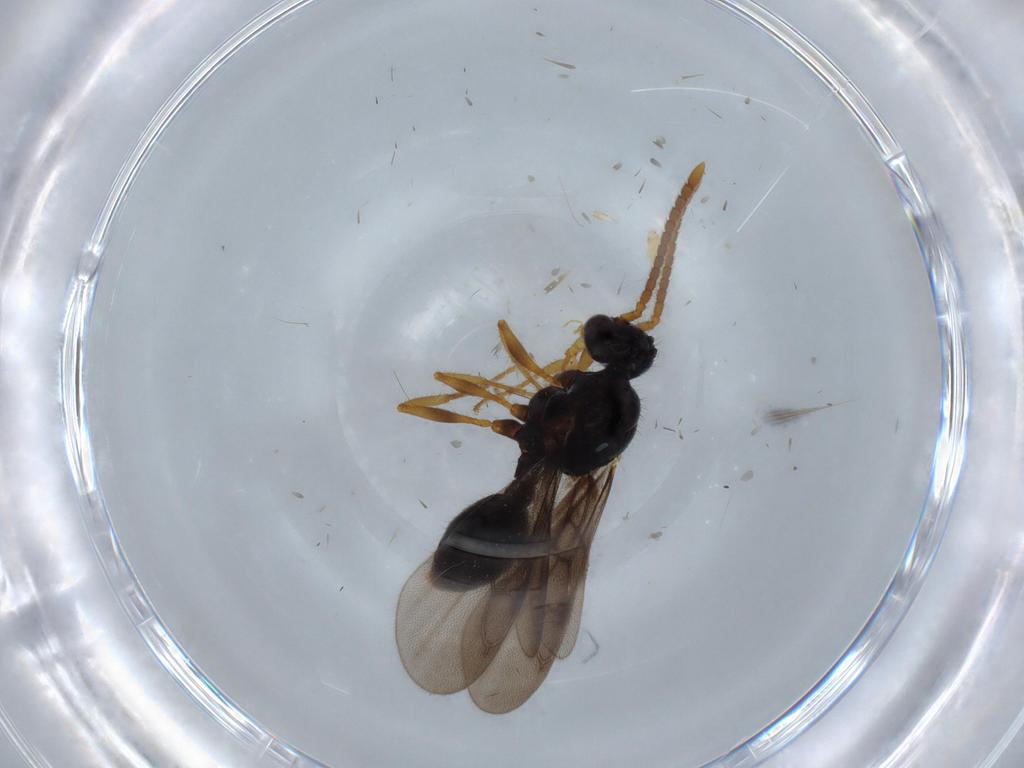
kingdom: Animalia
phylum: Arthropoda
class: Insecta
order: Hymenoptera
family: Formicidae
